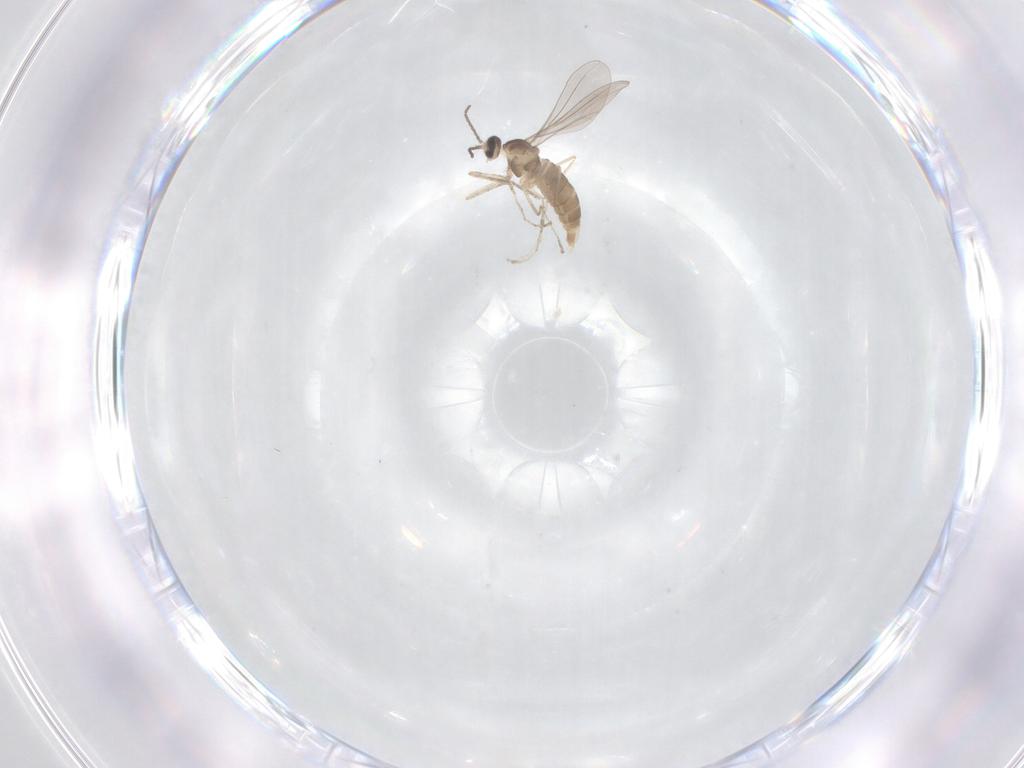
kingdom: Animalia
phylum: Arthropoda
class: Insecta
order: Diptera
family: Cecidomyiidae
